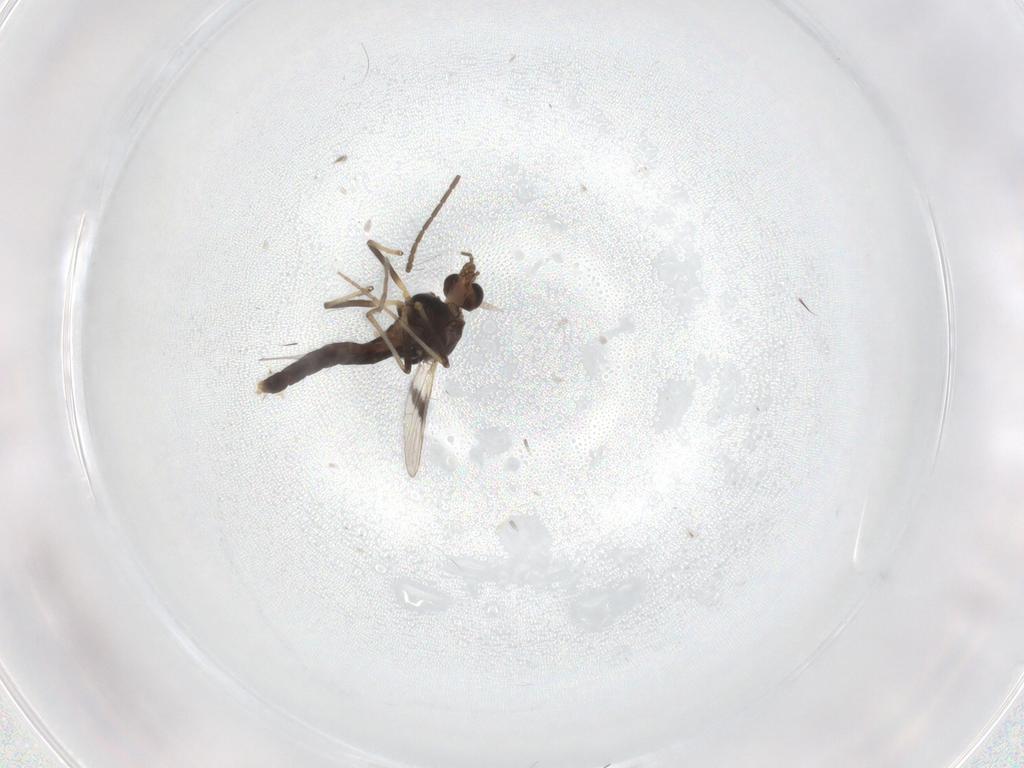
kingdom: Animalia
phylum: Arthropoda
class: Insecta
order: Diptera
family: Chironomidae
